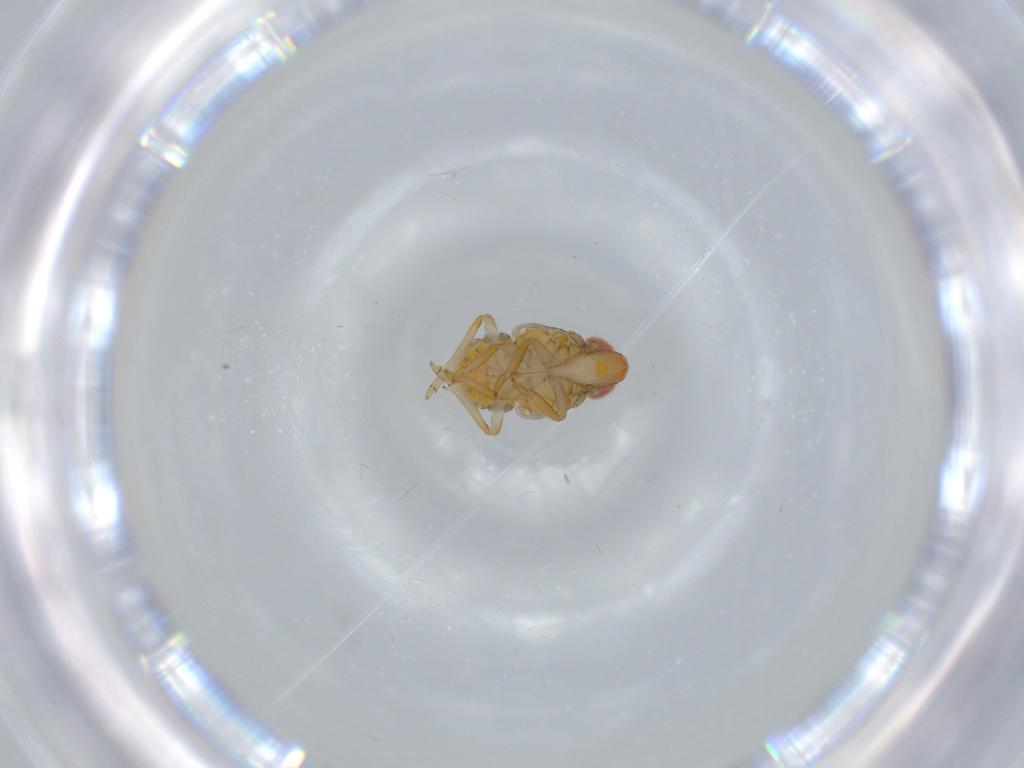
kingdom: Animalia
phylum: Arthropoda
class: Insecta
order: Hemiptera
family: Fulgoroidea_incertae_sedis
